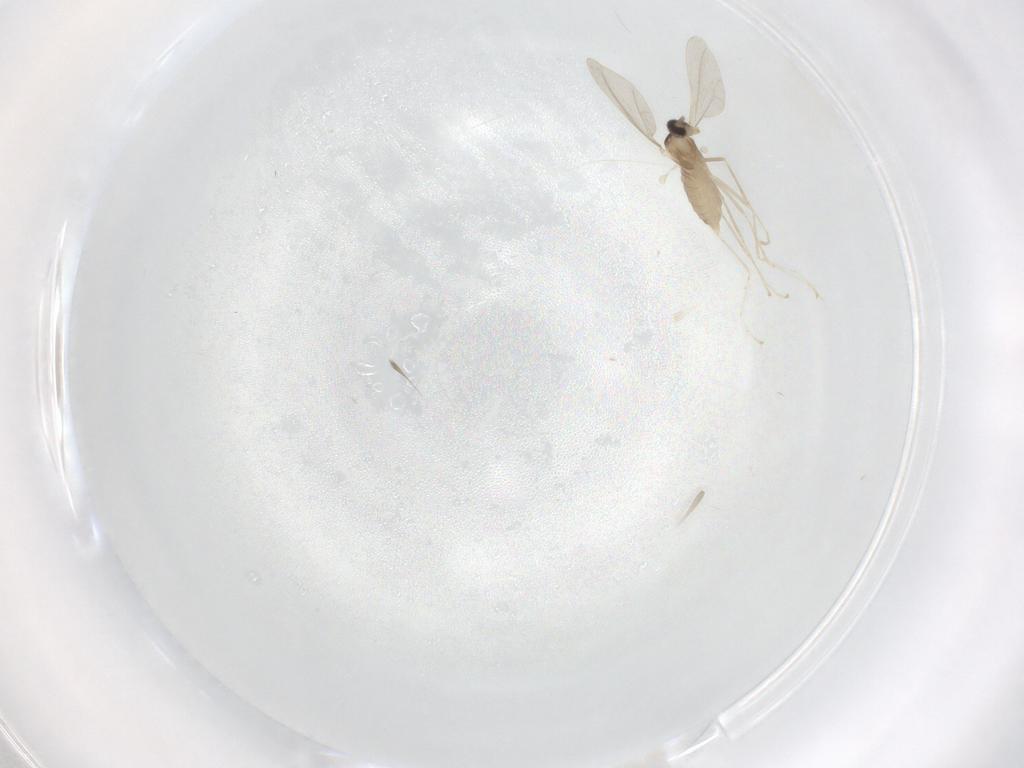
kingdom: Animalia
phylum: Arthropoda
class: Insecta
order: Diptera
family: Cecidomyiidae
